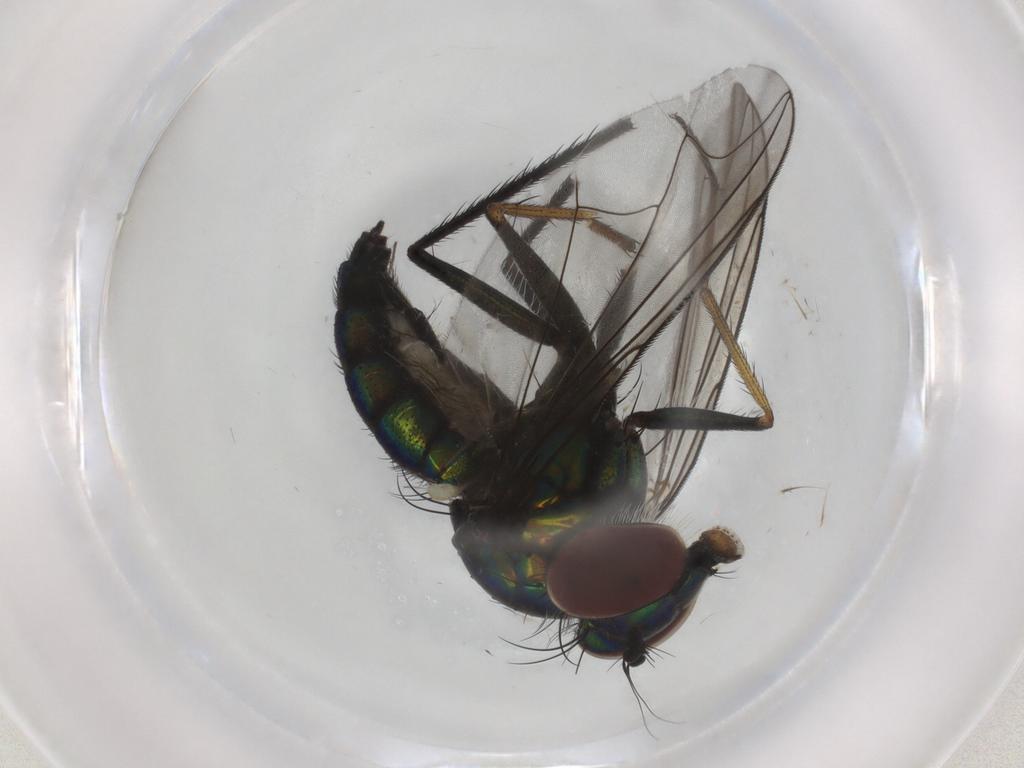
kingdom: Animalia
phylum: Arthropoda
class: Insecta
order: Diptera
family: Dolichopodidae
